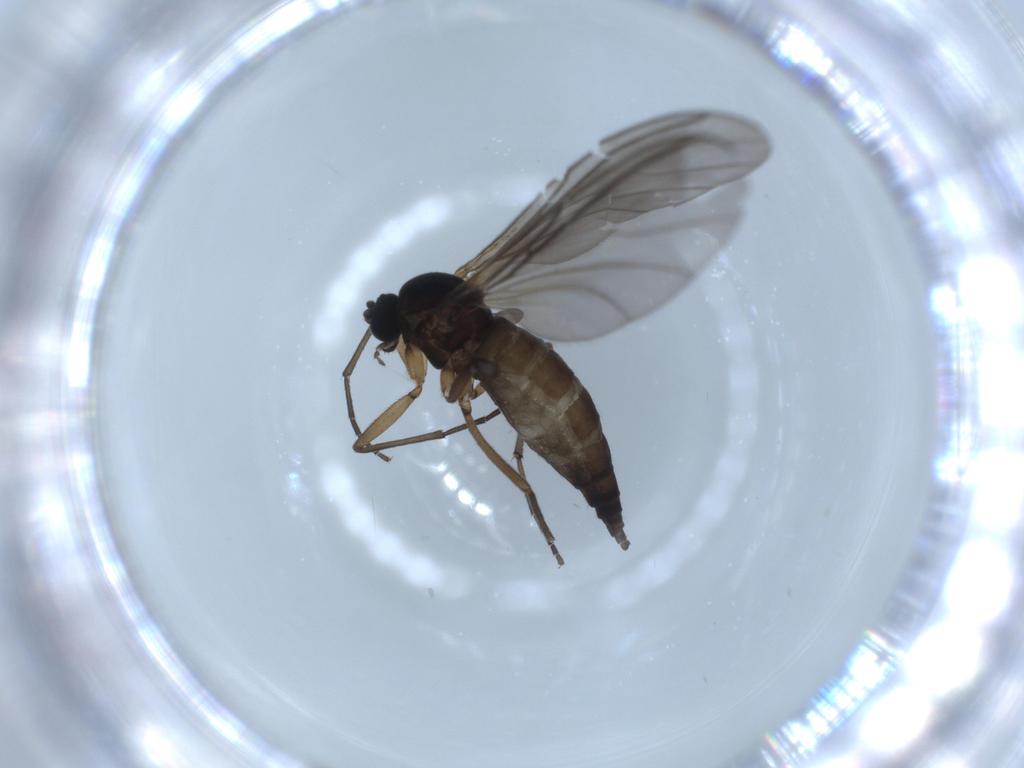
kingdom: Animalia
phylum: Arthropoda
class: Insecta
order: Diptera
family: Sciaridae
